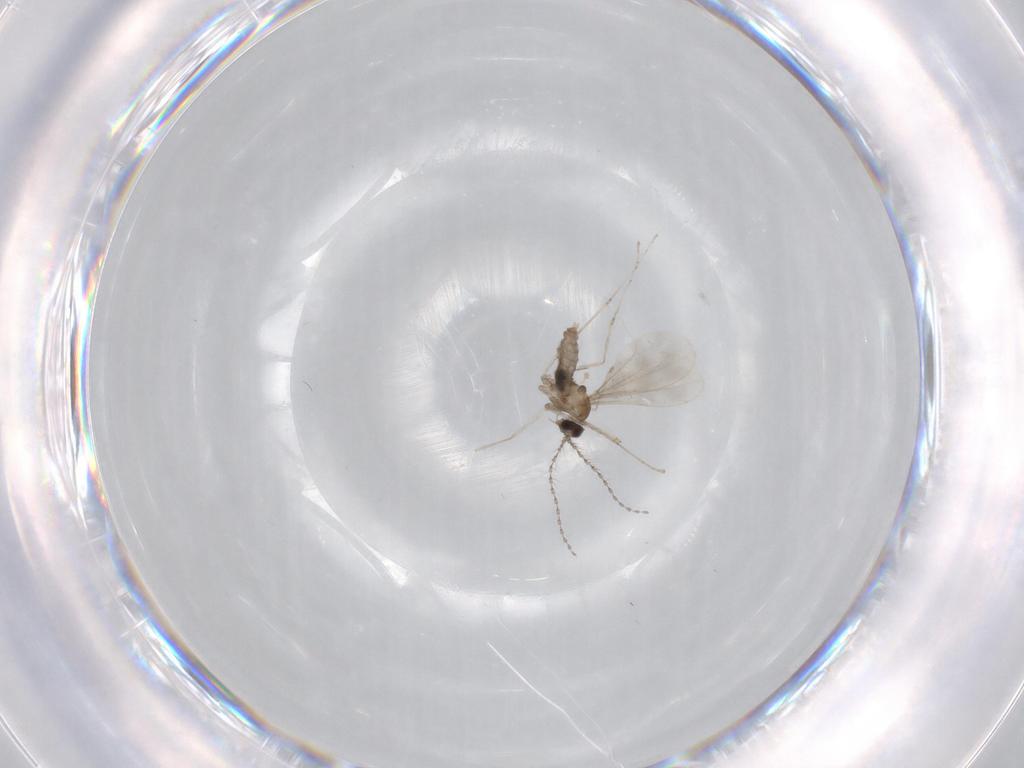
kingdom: Animalia
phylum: Arthropoda
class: Insecta
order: Diptera
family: Cecidomyiidae
